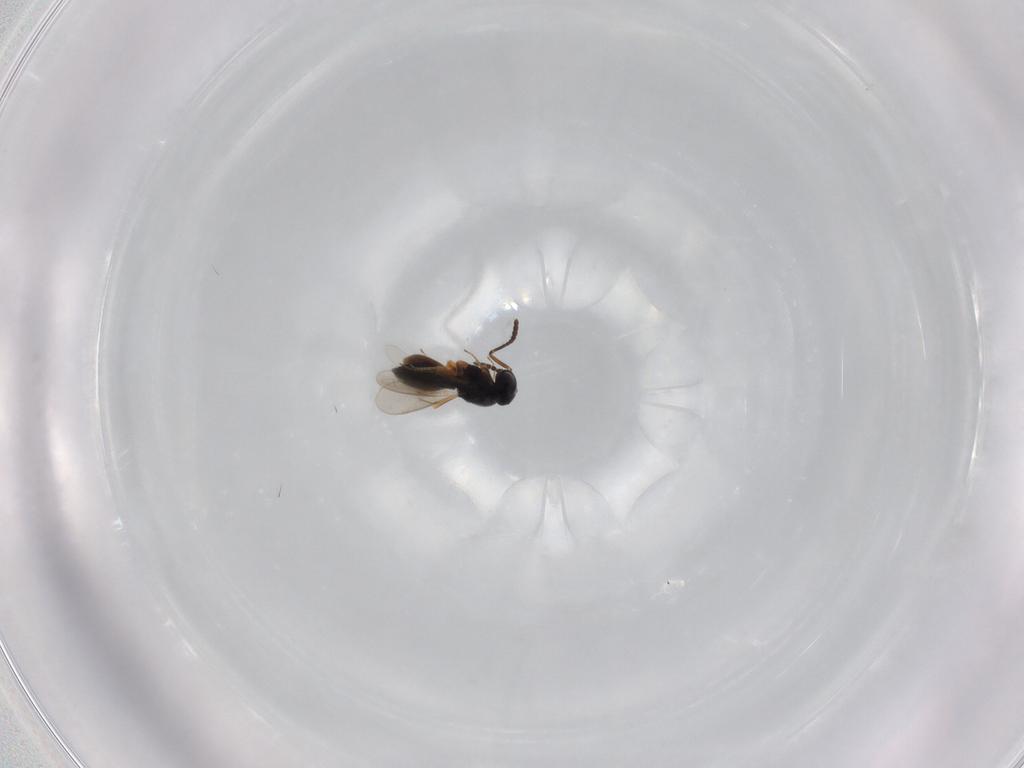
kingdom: Animalia
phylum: Arthropoda
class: Insecta
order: Hymenoptera
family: Scelionidae
